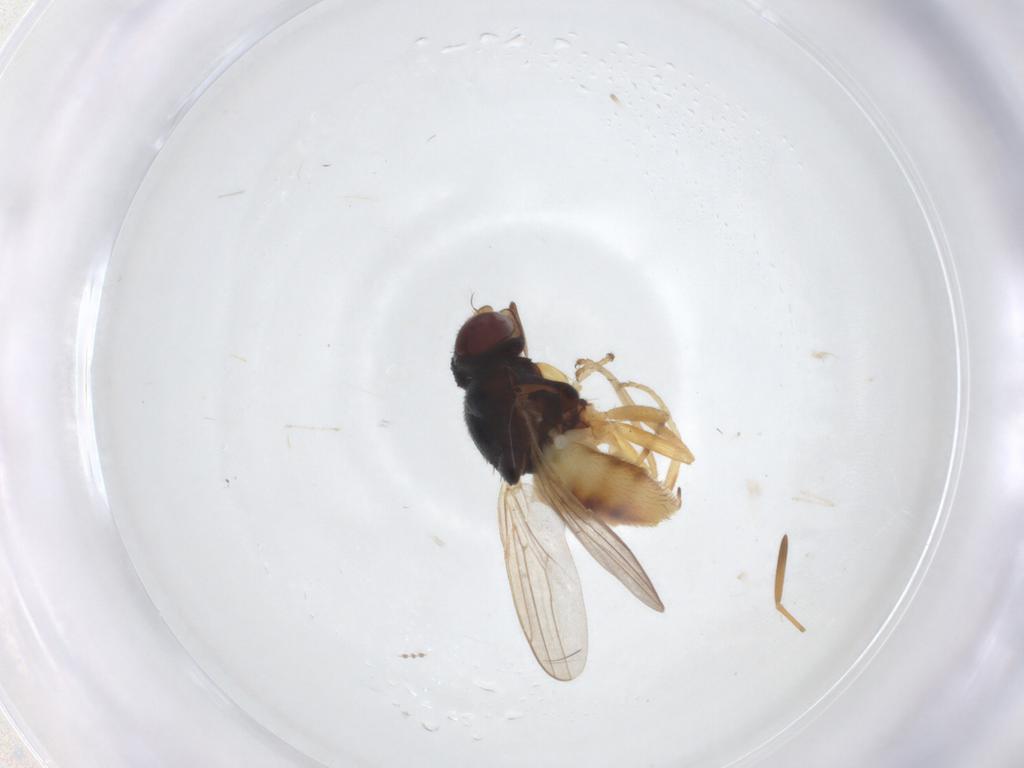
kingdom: Animalia
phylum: Arthropoda
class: Insecta
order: Diptera
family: Chloropidae
